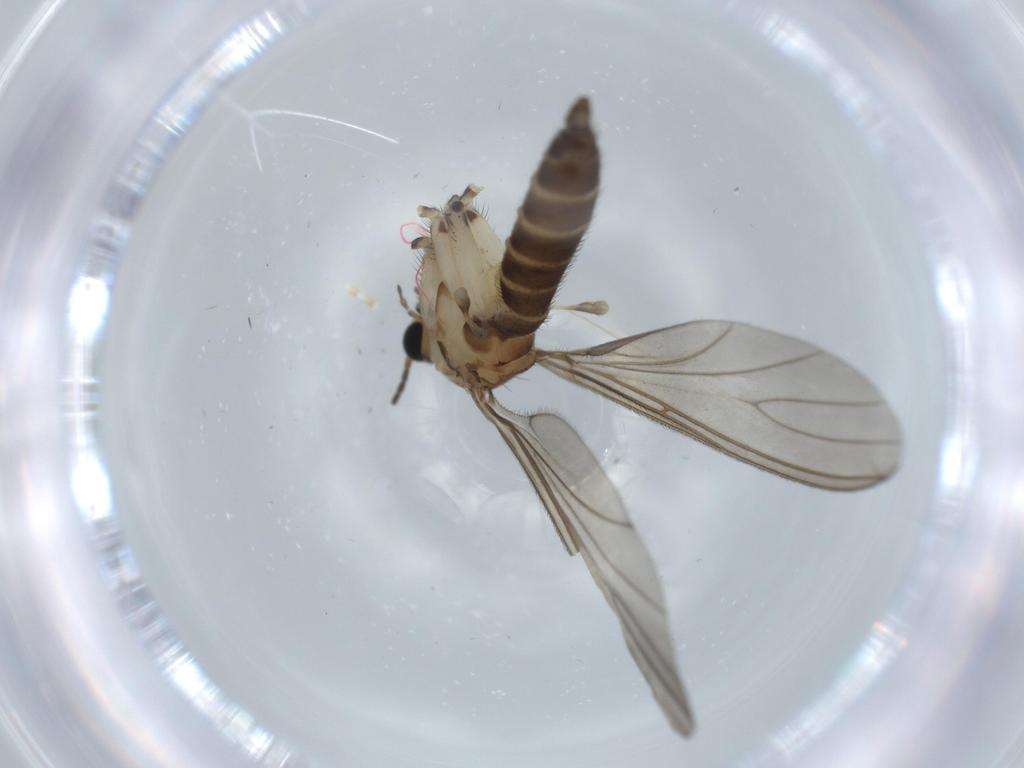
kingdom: Animalia
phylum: Arthropoda
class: Insecta
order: Diptera
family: Sciaridae
